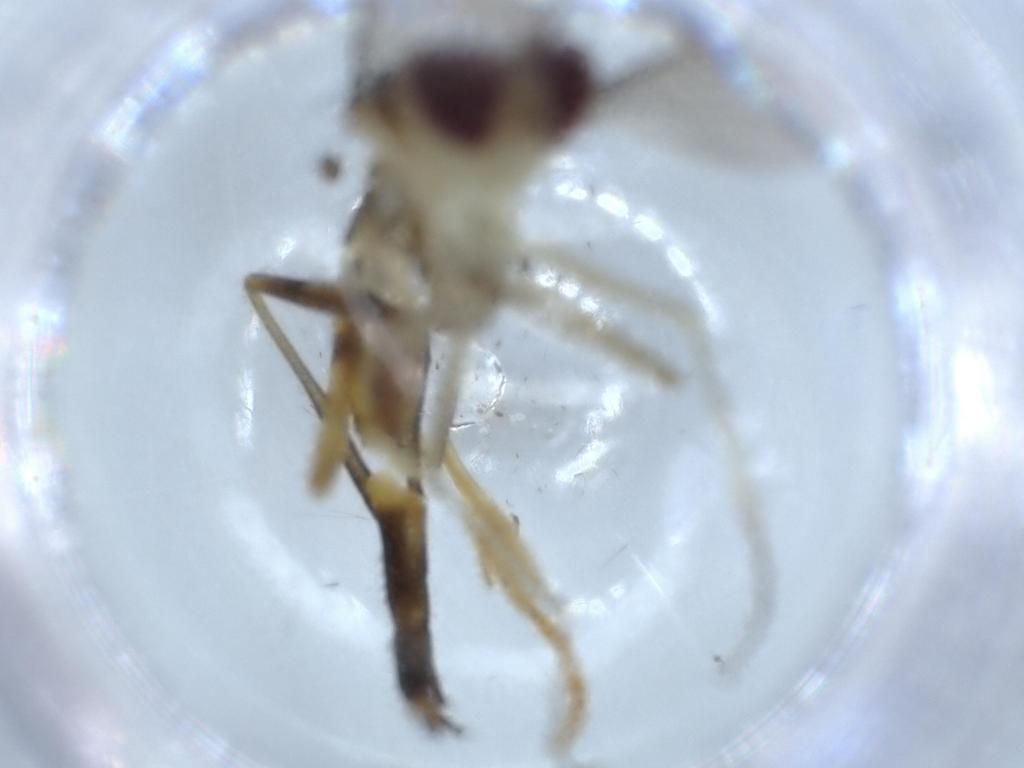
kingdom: Animalia
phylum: Arthropoda
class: Insecta
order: Diptera
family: Conopidae
